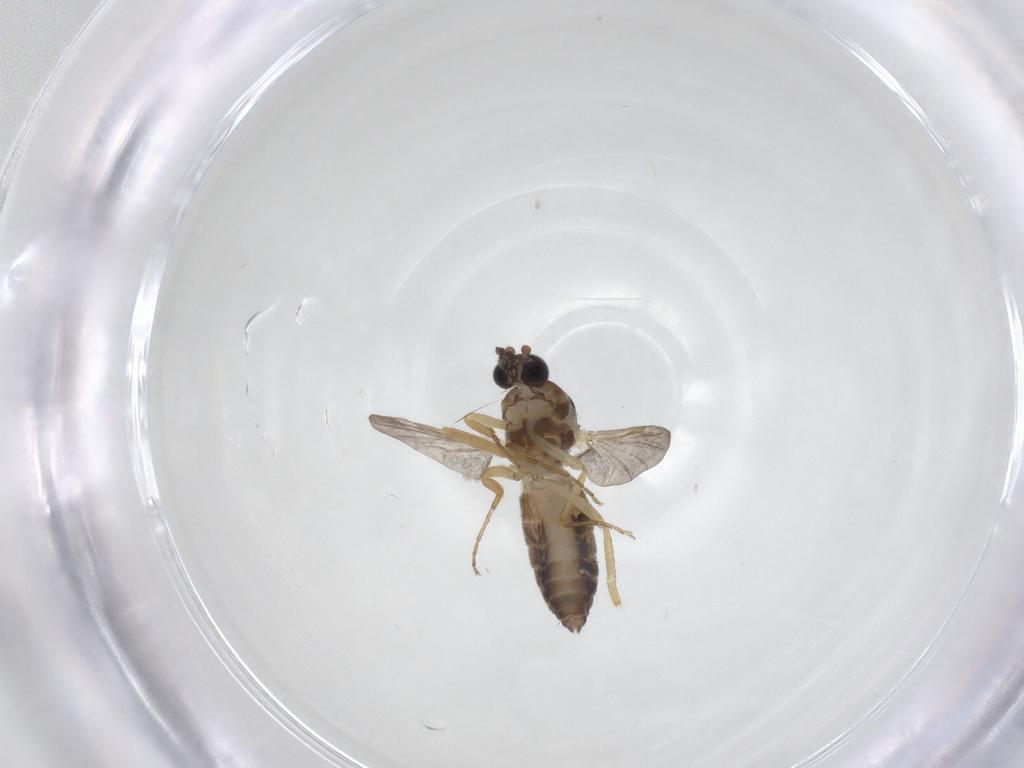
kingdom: Animalia
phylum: Arthropoda
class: Insecta
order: Diptera
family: Ceratopogonidae
